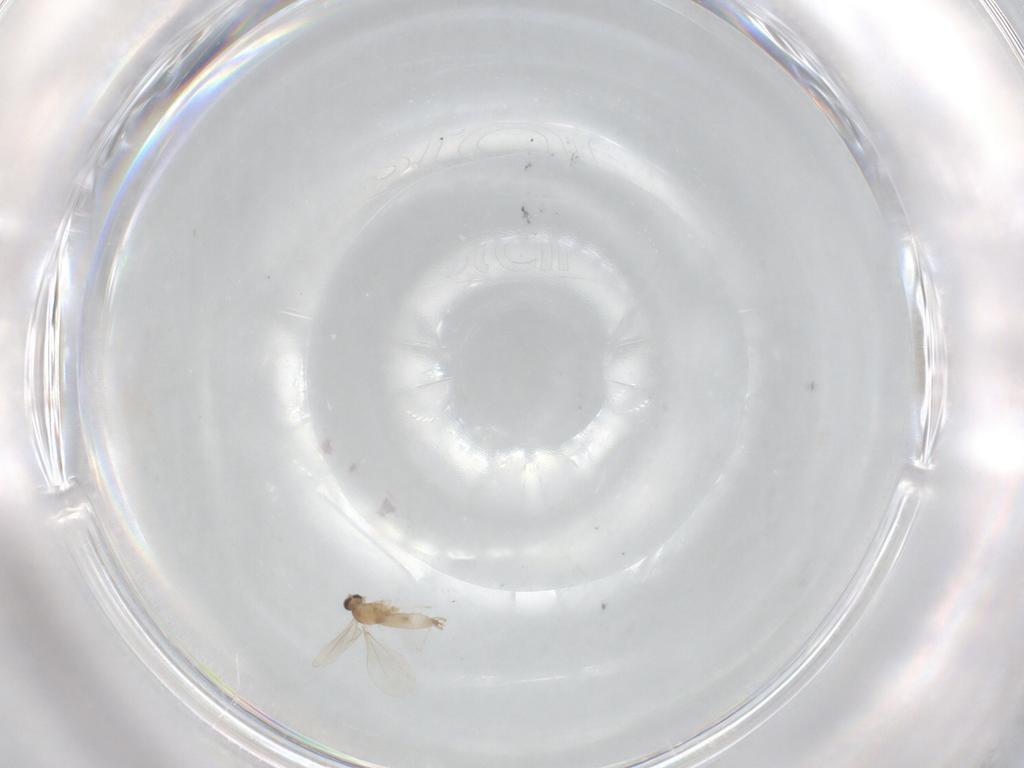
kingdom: Animalia
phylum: Arthropoda
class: Insecta
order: Diptera
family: Cecidomyiidae
